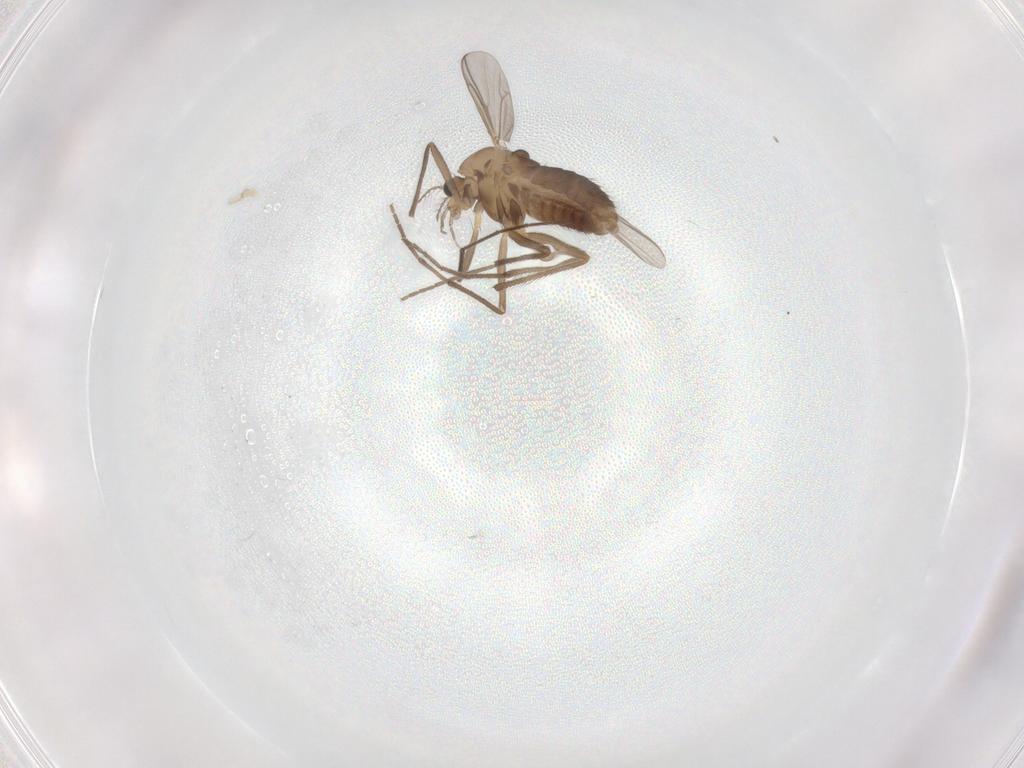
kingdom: Animalia
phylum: Arthropoda
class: Insecta
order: Diptera
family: Chironomidae
